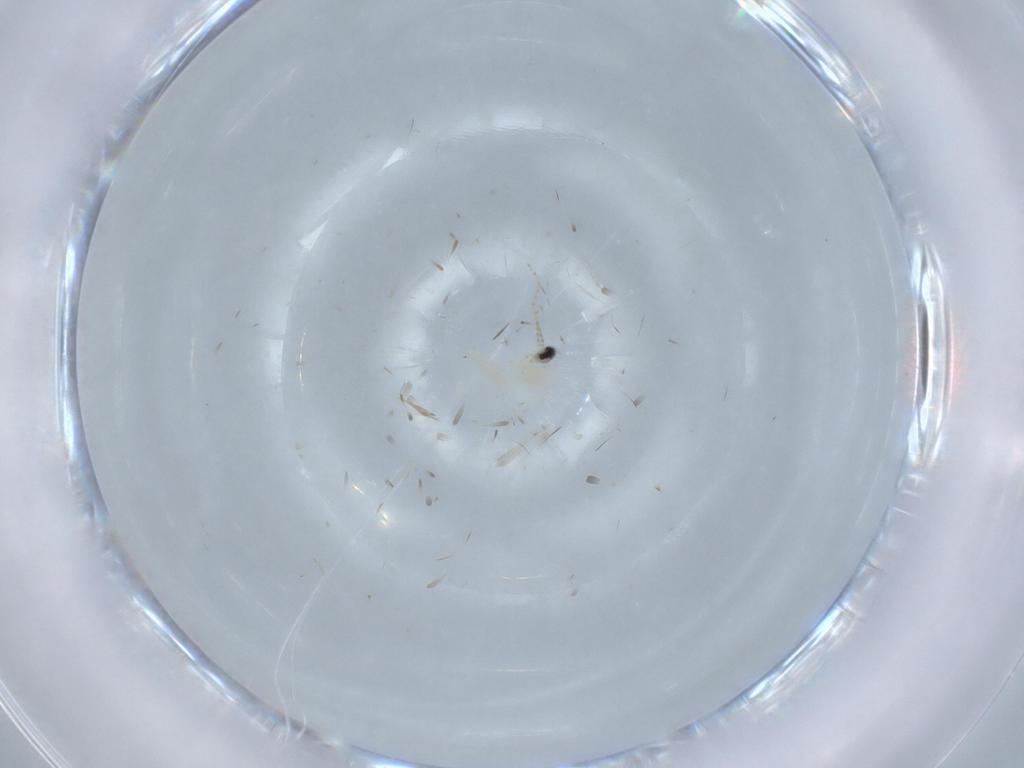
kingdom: Animalia
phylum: Arthropoda
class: Insecta
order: Diptera
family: Cecidomyiidae
